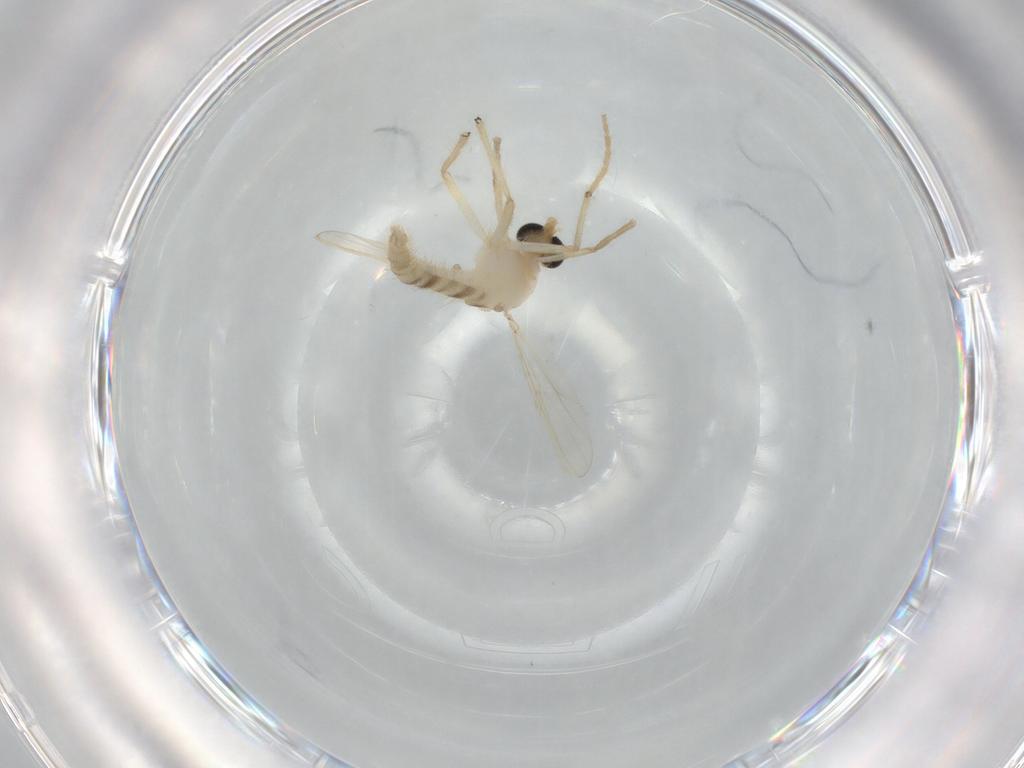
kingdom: Animalia
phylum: Arthropoda
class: Insecta
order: Diptera
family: Chironomidae
